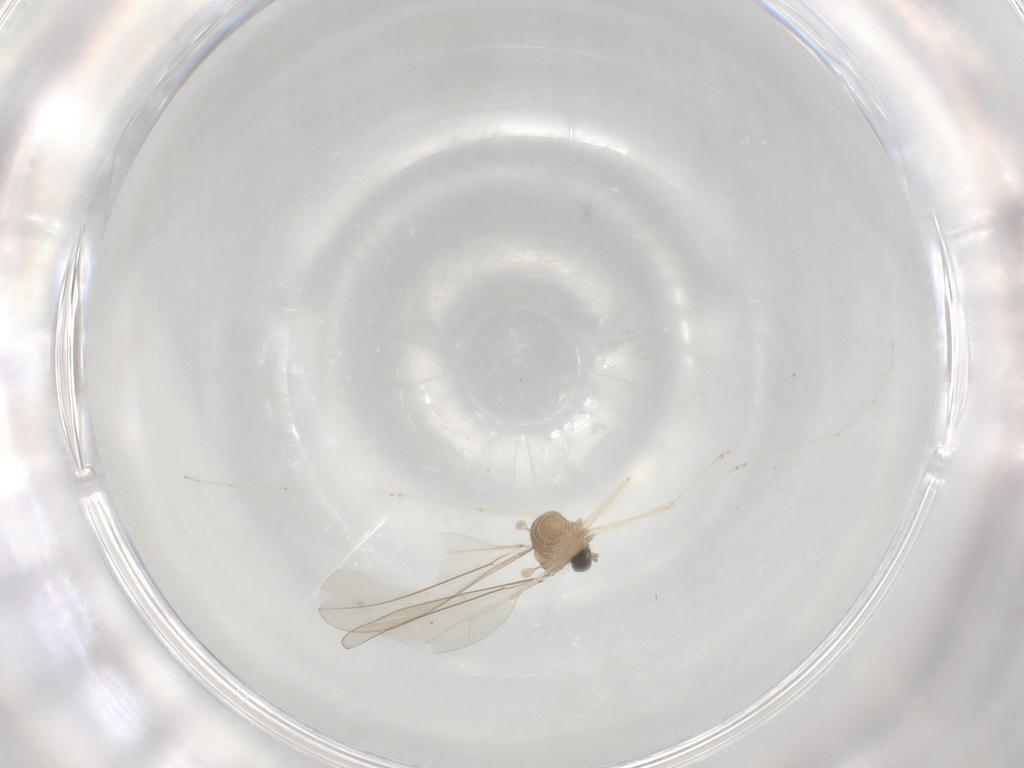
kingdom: Animalia
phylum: Arthropoda
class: Insecta
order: Diptera
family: Cecidomyiidae
